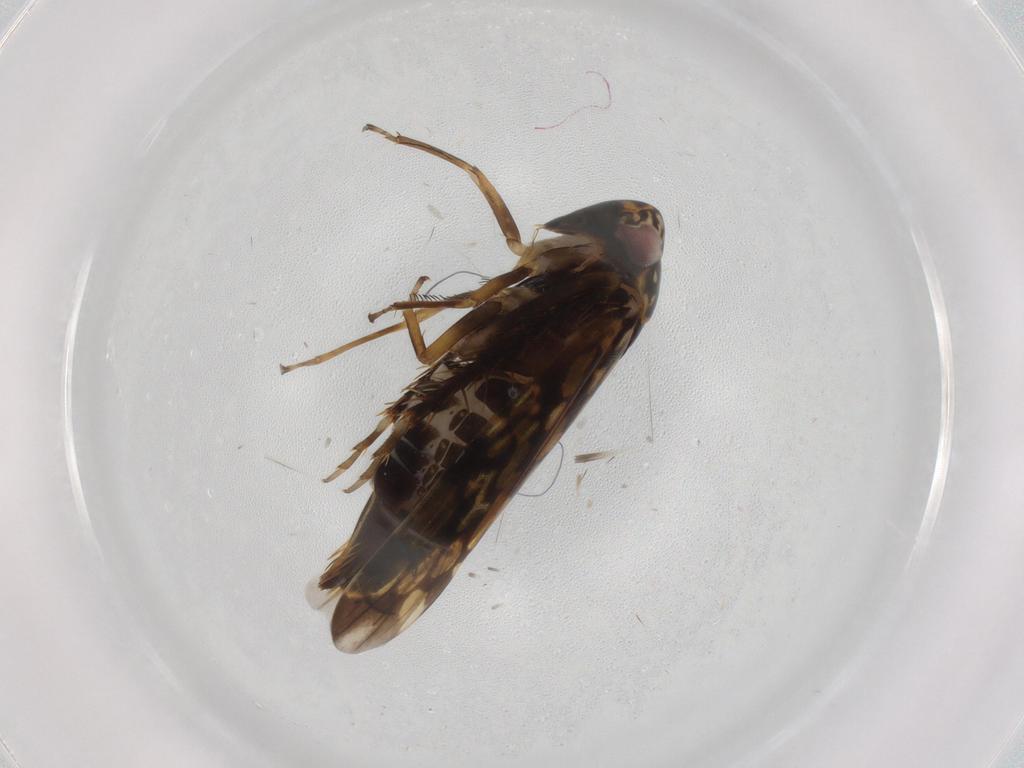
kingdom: Animalia
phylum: Arthropoda
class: Insecta
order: Hemiptera
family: Cicadellidae
